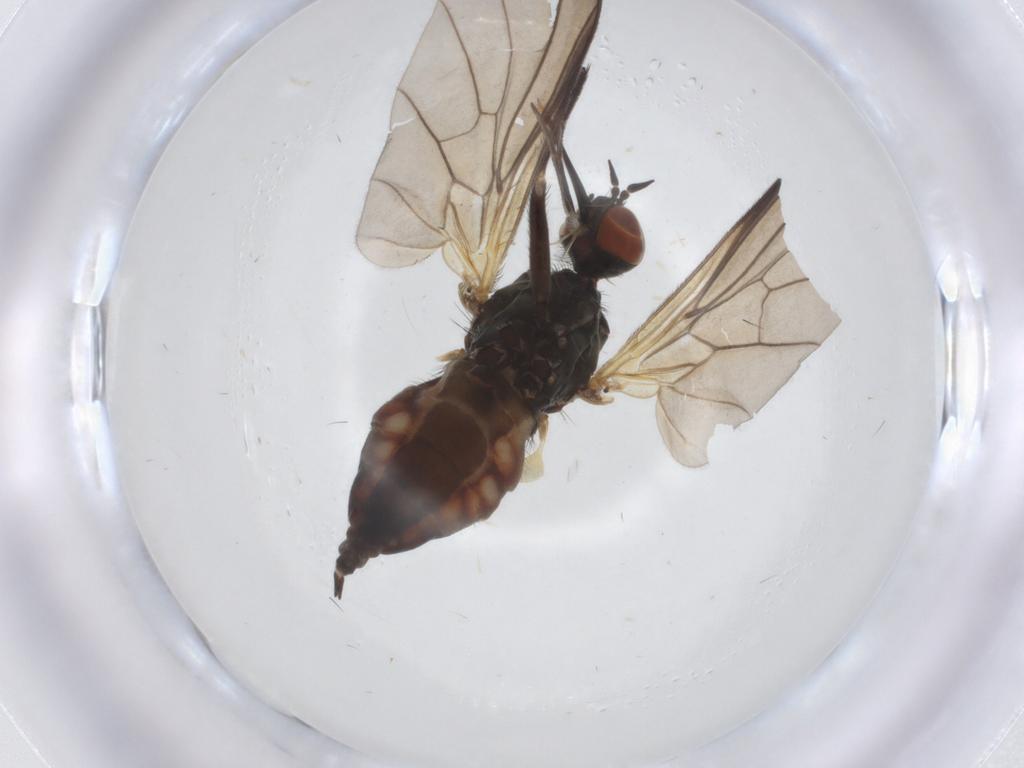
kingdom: Animalia
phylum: Arthropoda
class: Insecta
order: Diptera
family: Empididae
